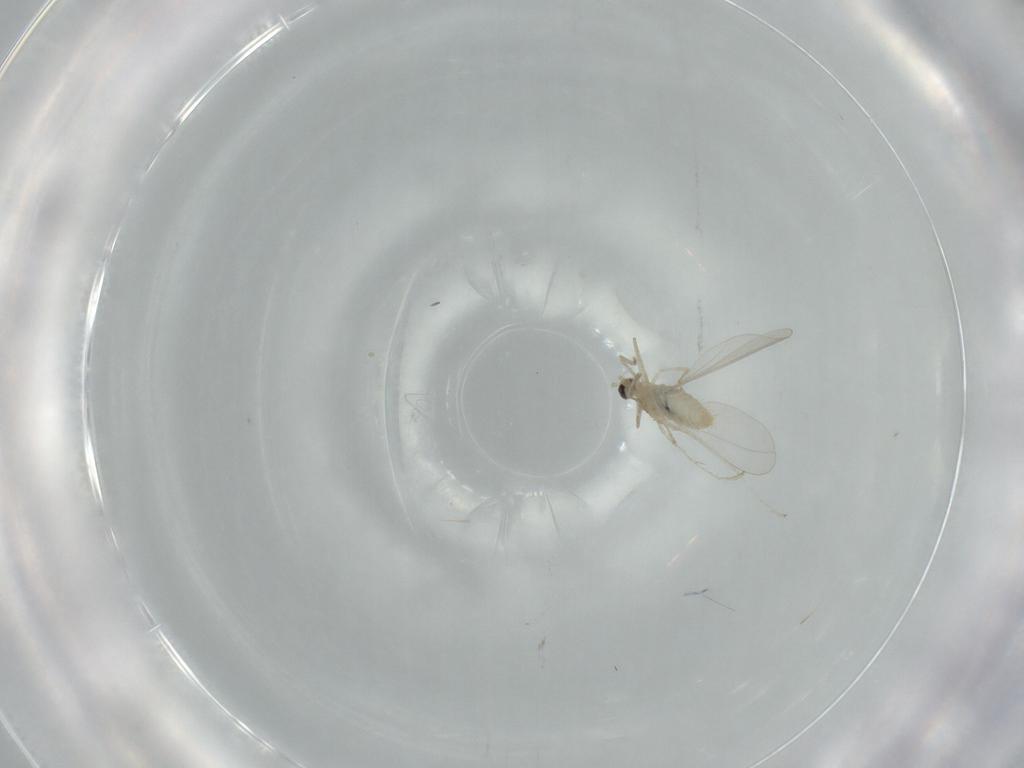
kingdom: Animalia
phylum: Arthropoda
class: Insecta
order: Diptera
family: Cecidomyiidae
